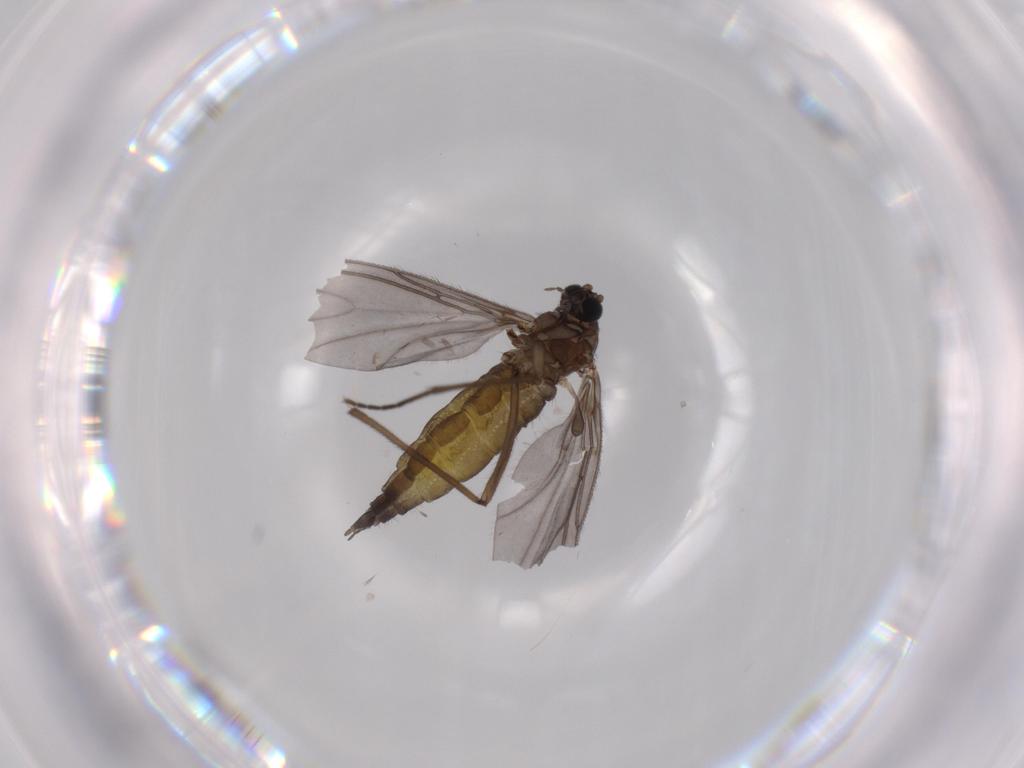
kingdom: Animalia
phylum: Arthropoda
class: Insecta
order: Diptera
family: Sciaridae
